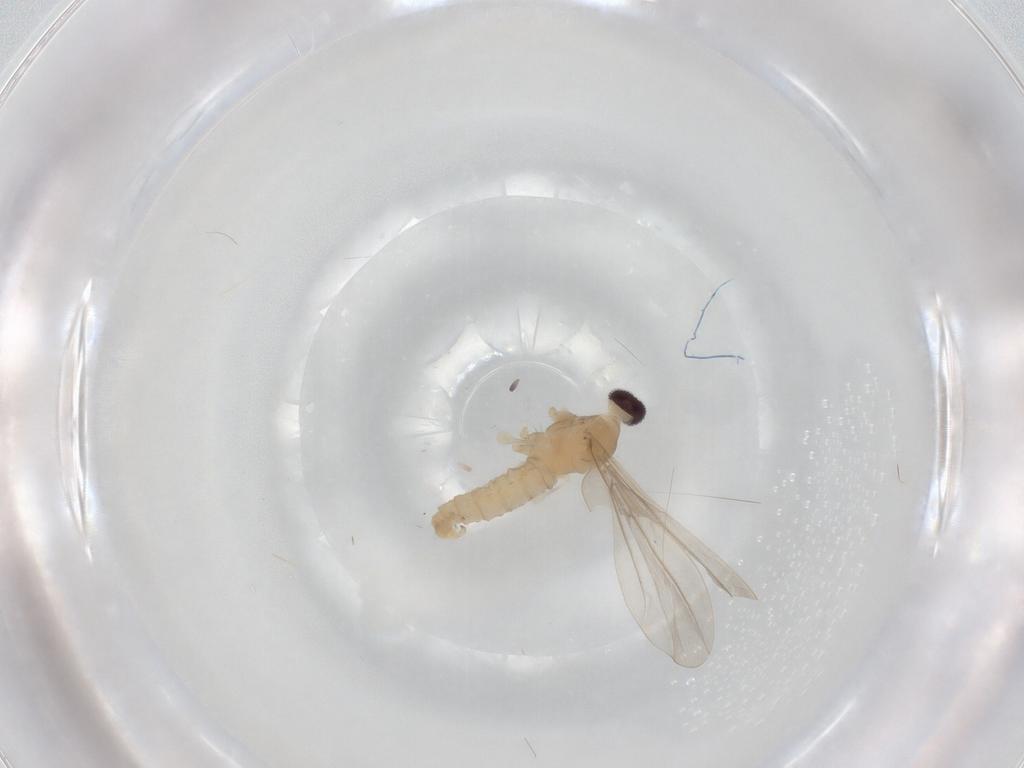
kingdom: Animalia
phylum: Arthropoda
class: Insecta
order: Diptera
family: Cecidomyiidae
